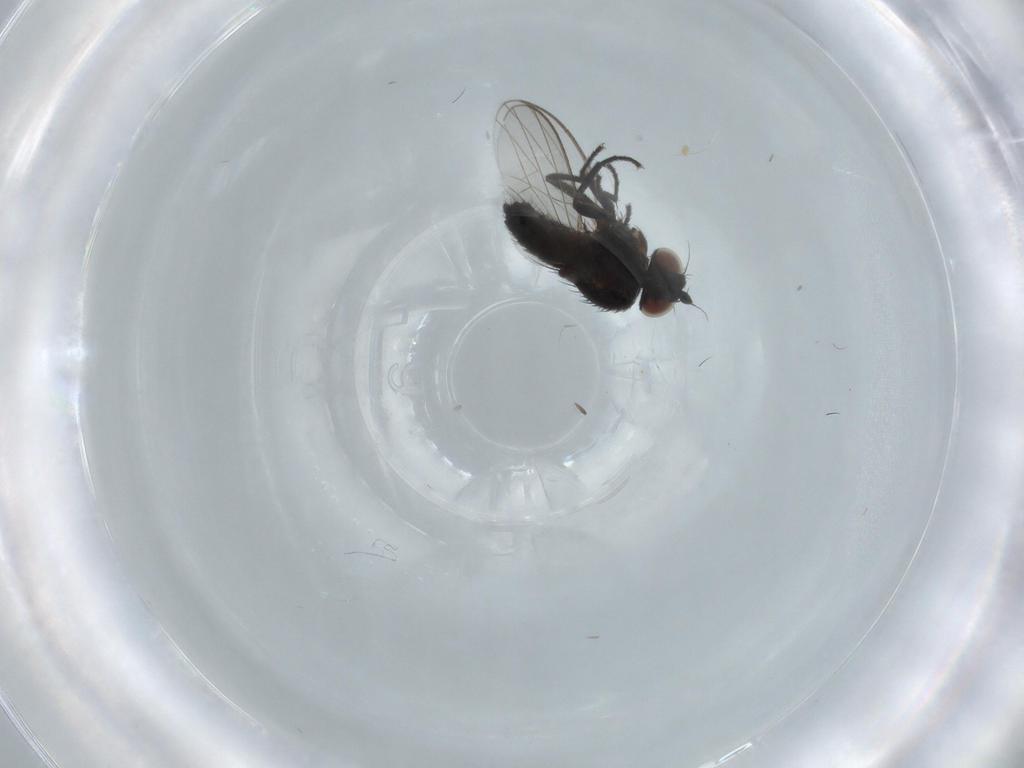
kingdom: Animalia
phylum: Arthropoda
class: Insecta
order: Diptera
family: Milichiidae
